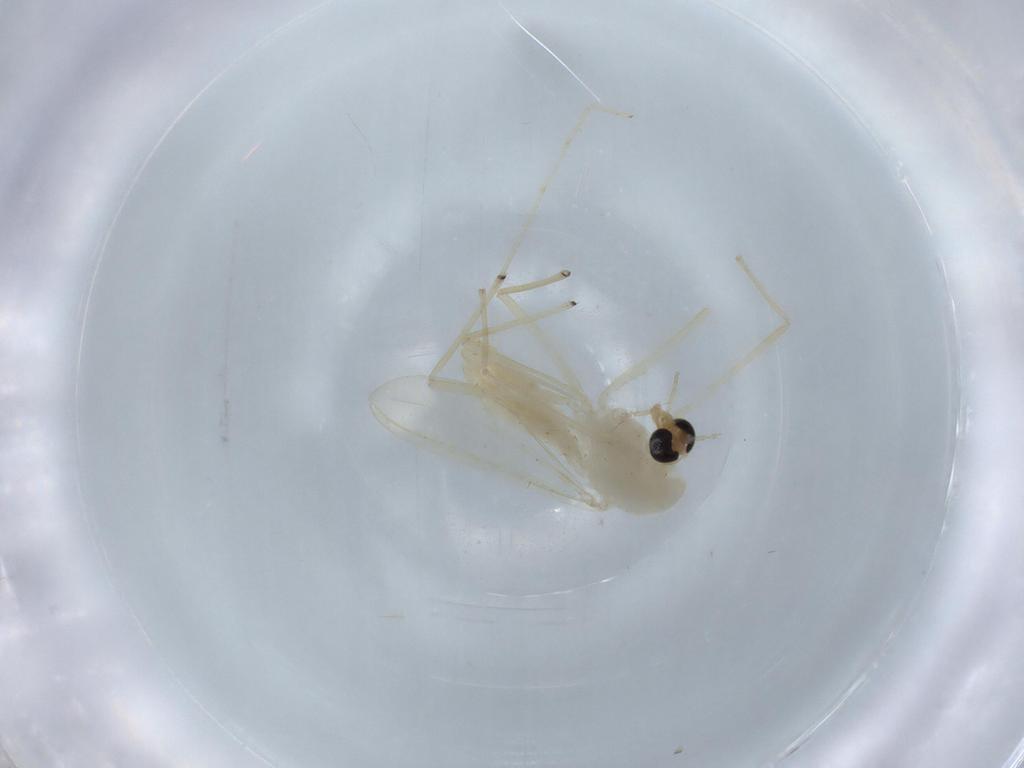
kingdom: Animalia
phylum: Arthropoda
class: Insecta
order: Diptera
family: Chironomidae
